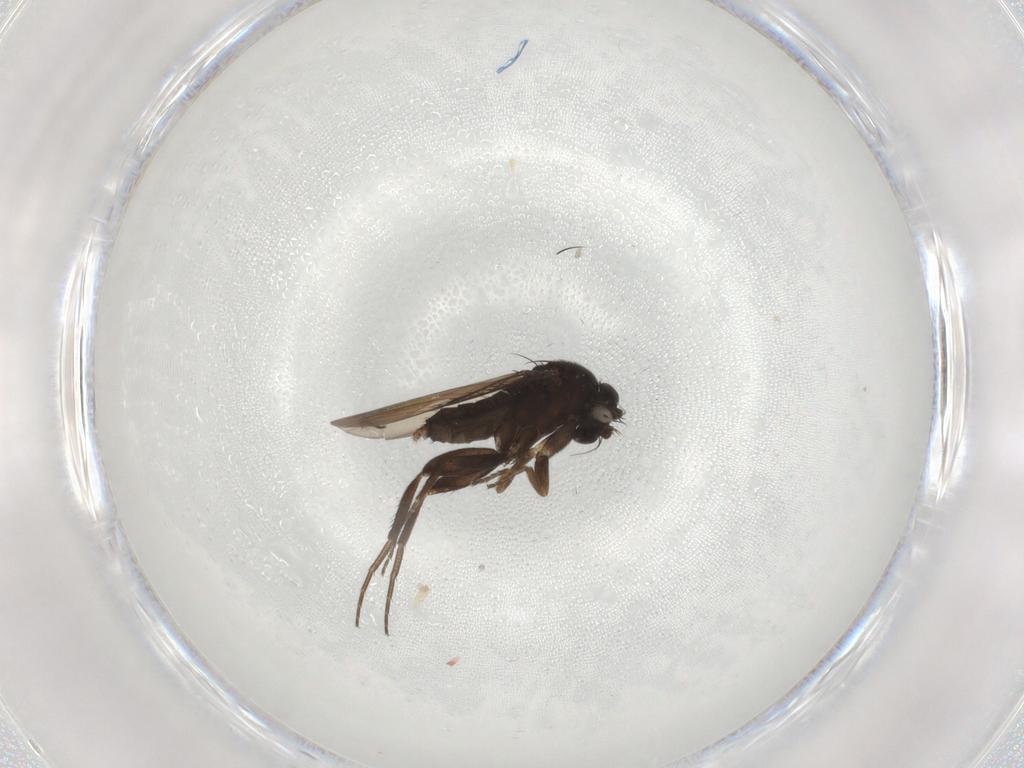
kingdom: Animalia
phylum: Arthropoda
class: Insecta
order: Diptera
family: Phoridae
